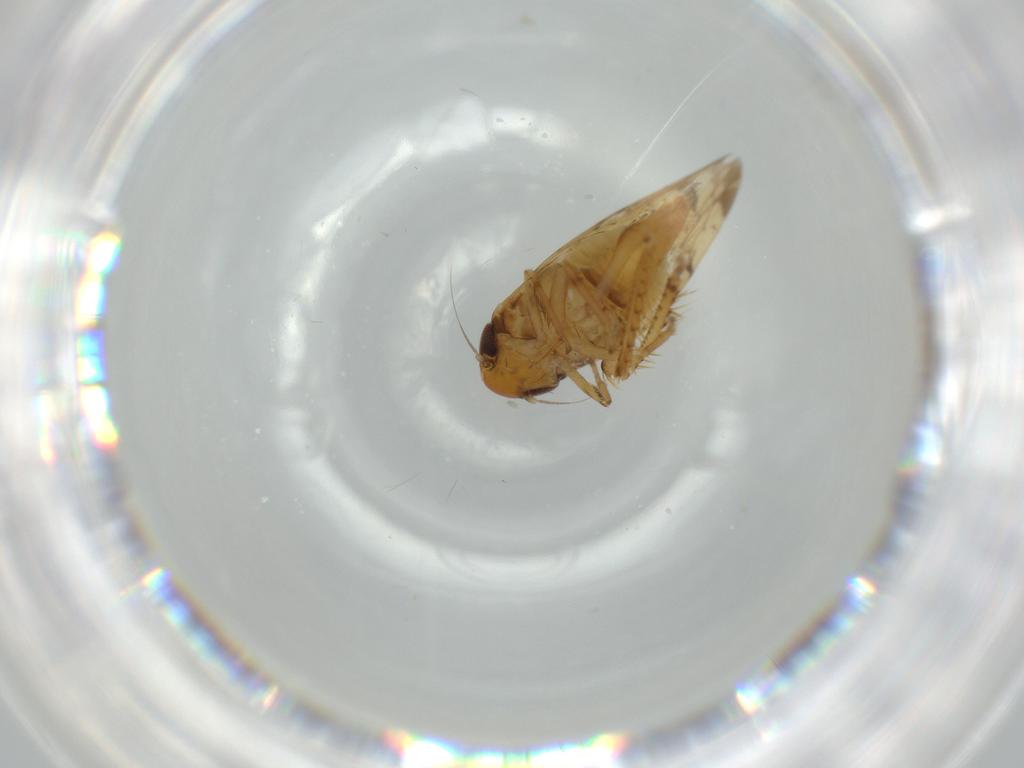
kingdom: Animalia
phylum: Arthropoda
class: Insecta
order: Hemiptera
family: Cicadellidae
